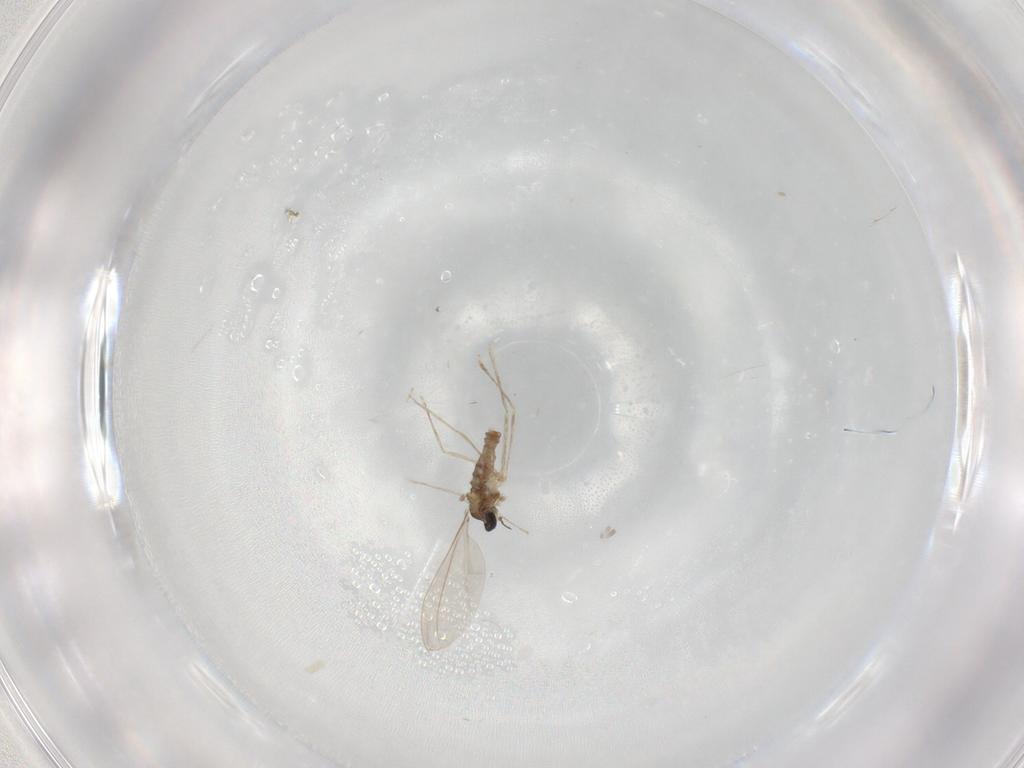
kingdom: Animalia
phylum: Arthropoda
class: Insecta
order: Diptera
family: Cecidomyiidae
